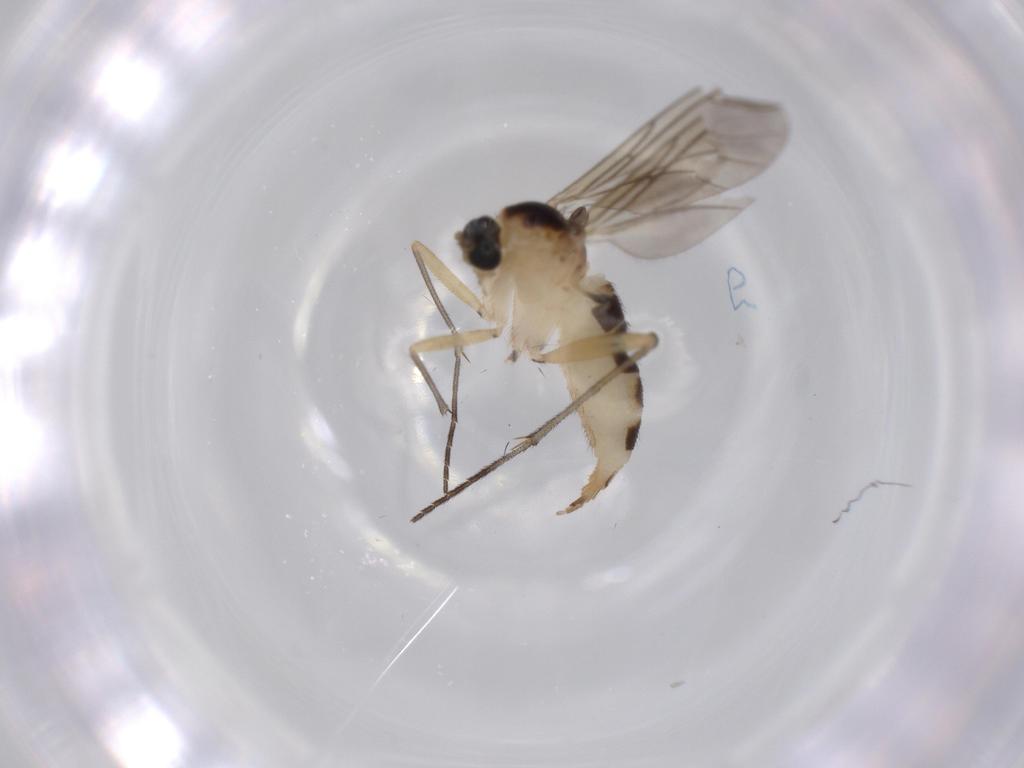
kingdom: Animalia
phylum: Arthropoda
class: Insecta
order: Diptera
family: Sciaridae
